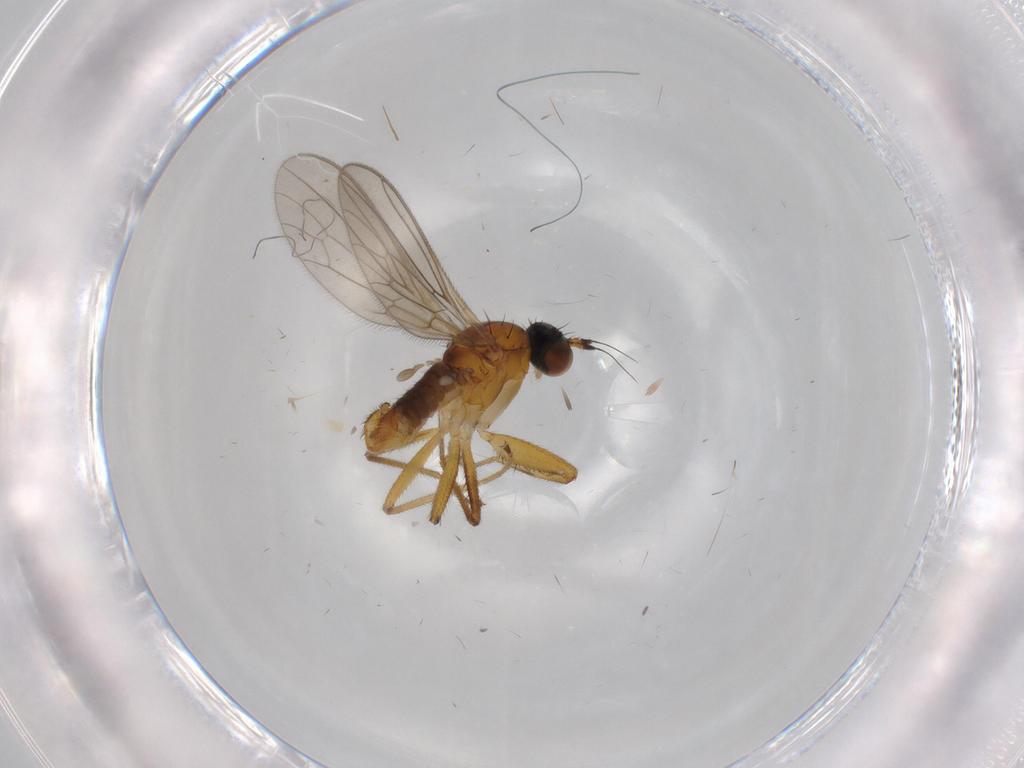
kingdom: Animalia
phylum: Arthropoda
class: Insecta
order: Diptera
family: Empididae
